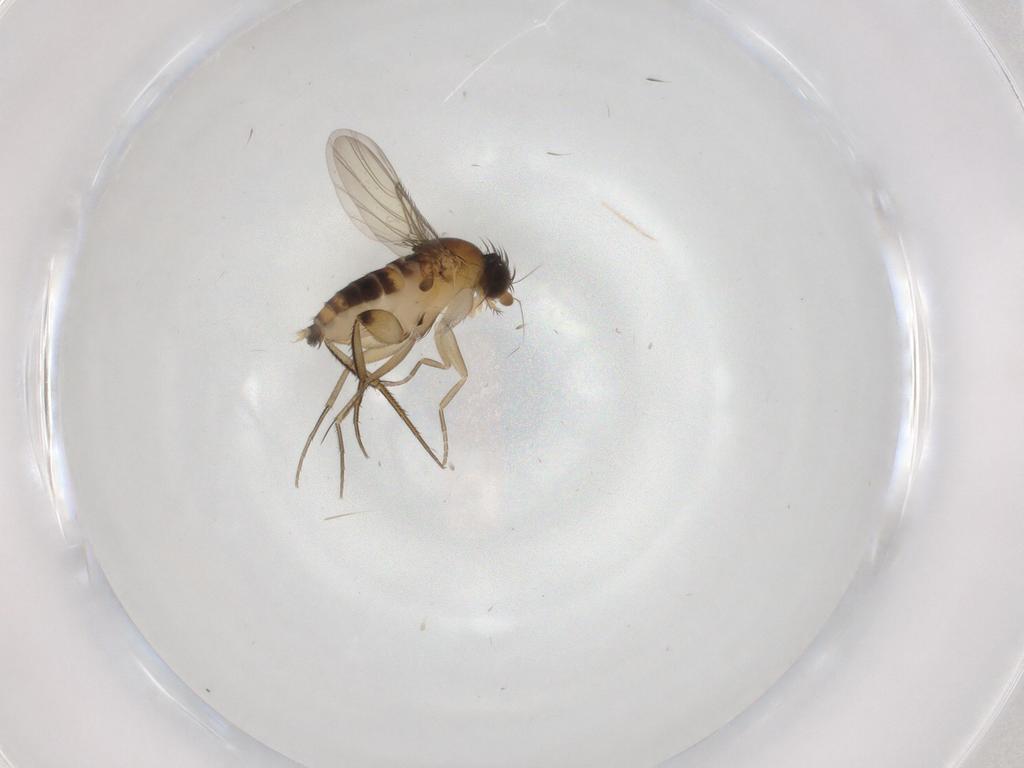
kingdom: Animalia
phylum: Arthropoda
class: Insecta
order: Diptera
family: Phoridae
